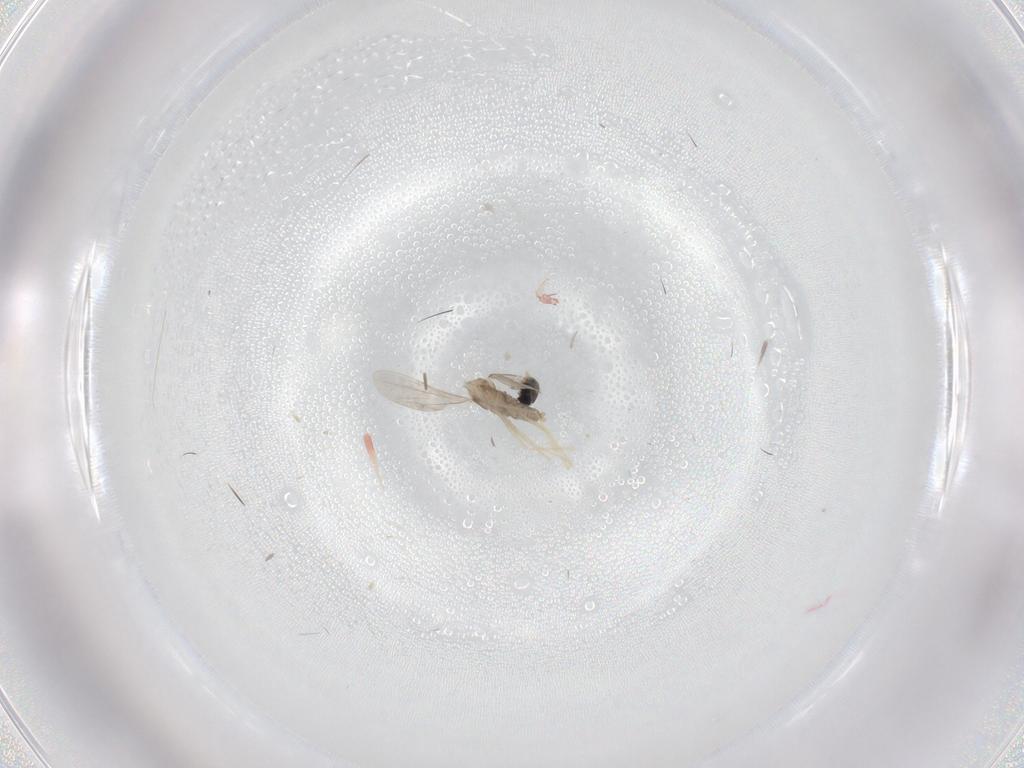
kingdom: Animalia
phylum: Arthropoda
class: Insecta
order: Diptera
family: Cecidomyiidae
